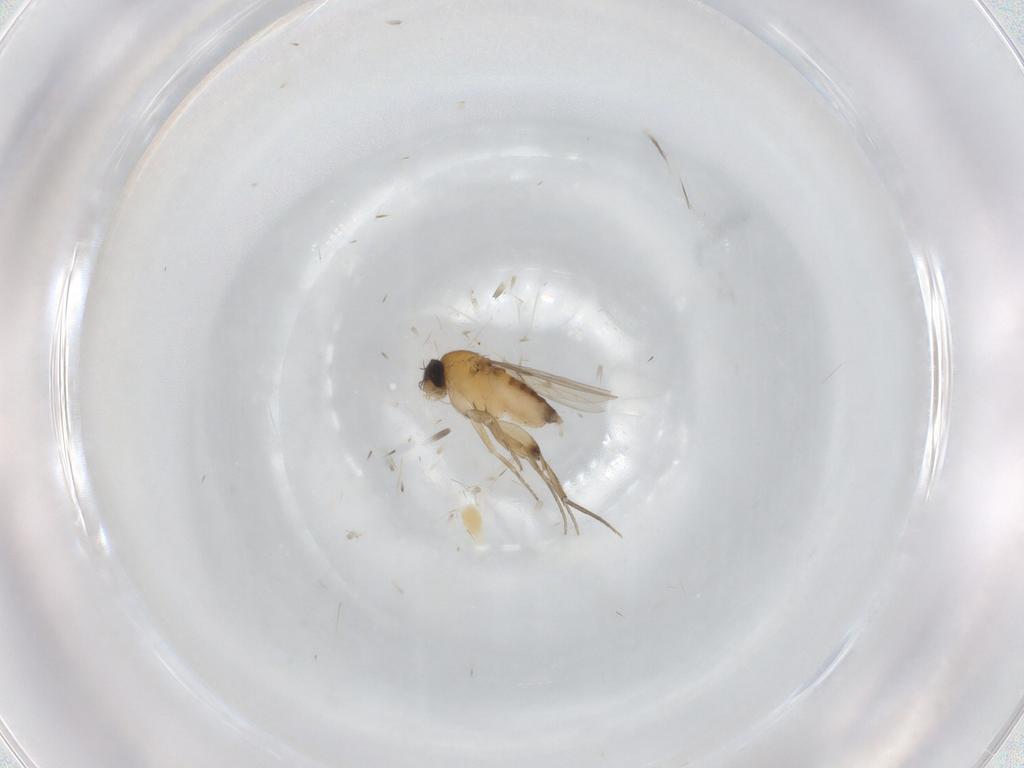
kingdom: Animalia
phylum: Arthropoda
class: Insecta
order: Diptera
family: Phoridae
